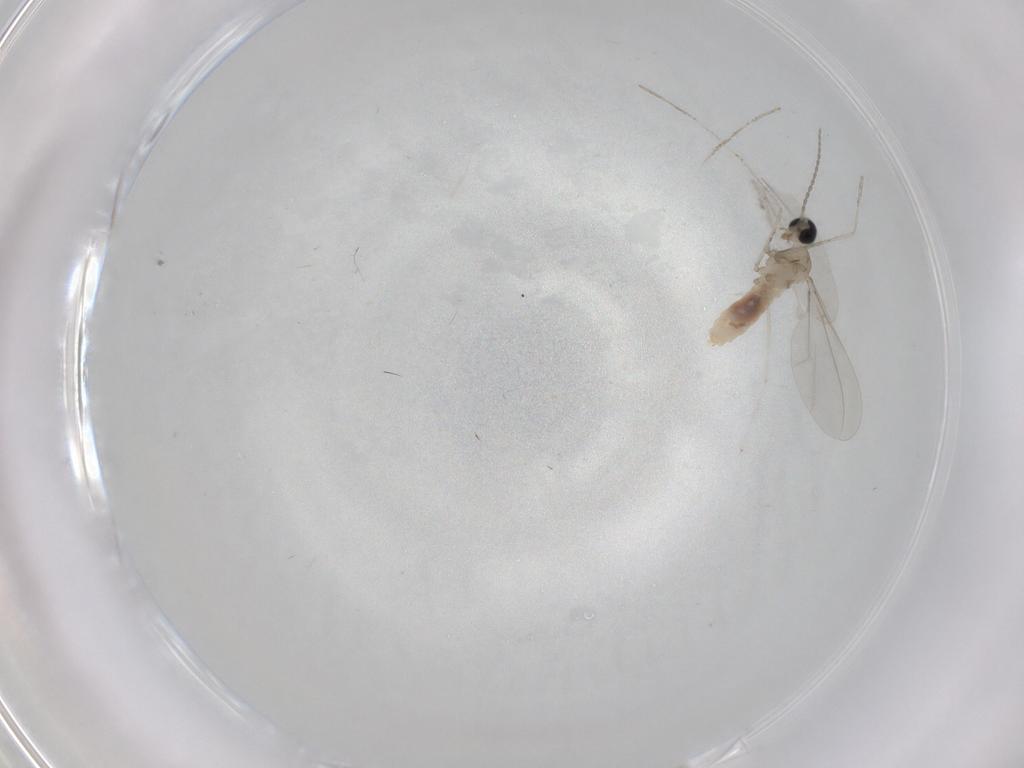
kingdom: Animalia
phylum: Arthropoda
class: Insecta
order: Diptera
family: Cecidomyiidae
